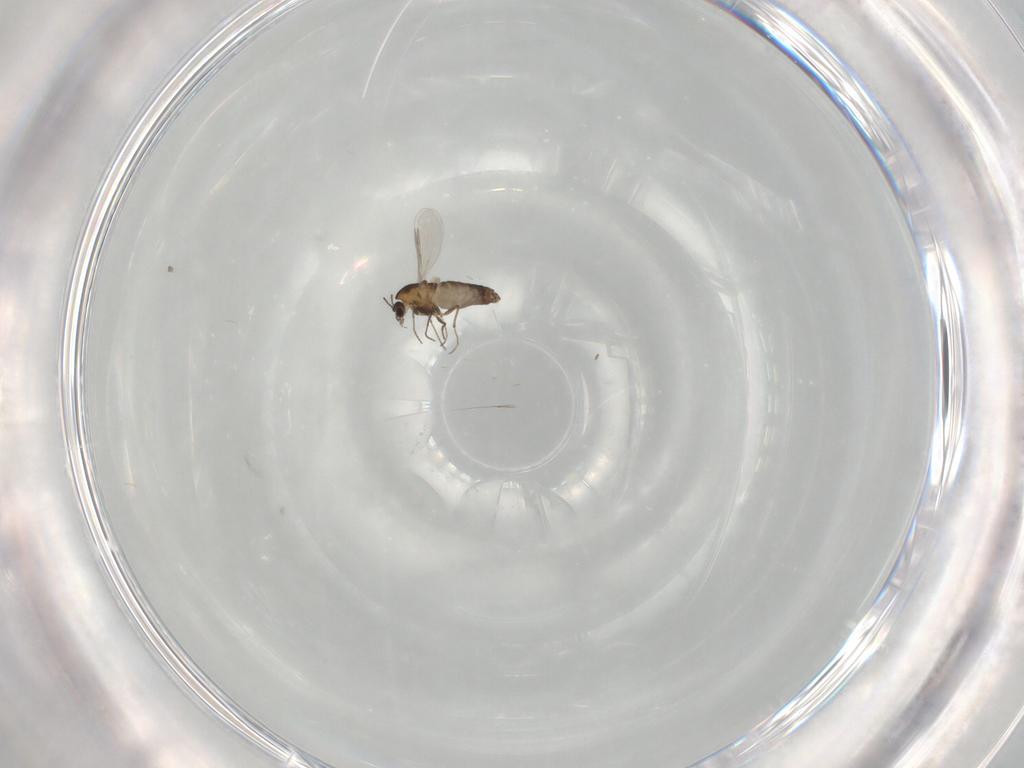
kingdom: Animalia
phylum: Arthropoda
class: Insecta
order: Diptera
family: Chironomidae
